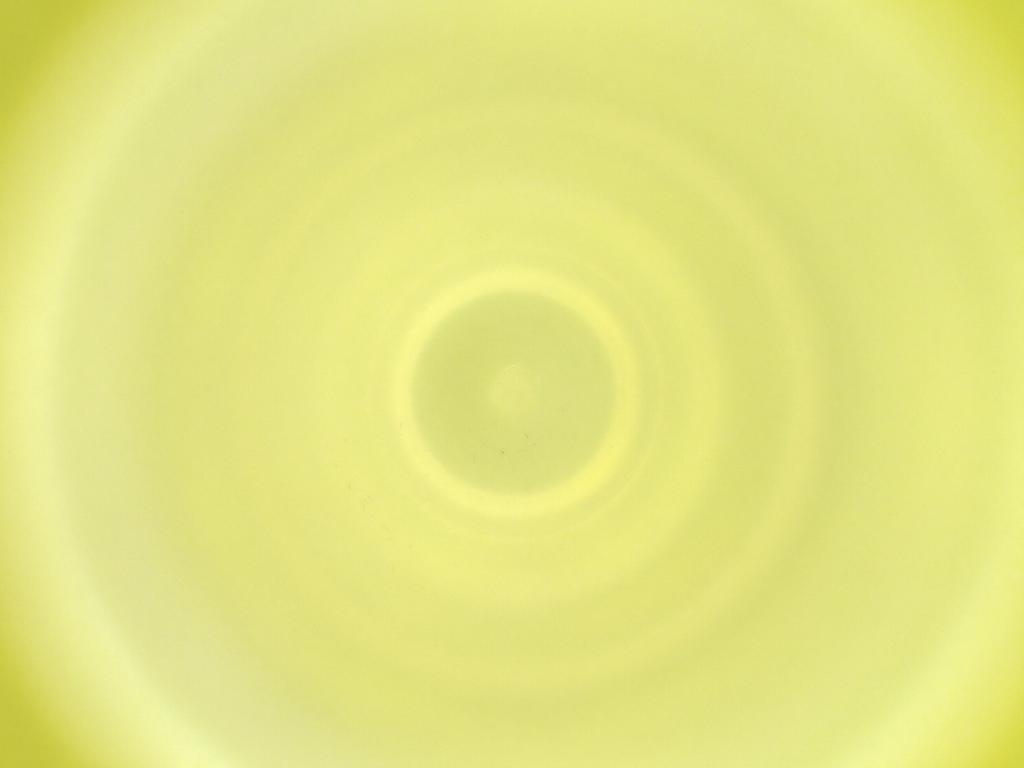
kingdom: Animalia
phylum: Arthropoda
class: Insecta
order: Diptera
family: Cecidomyiidae
